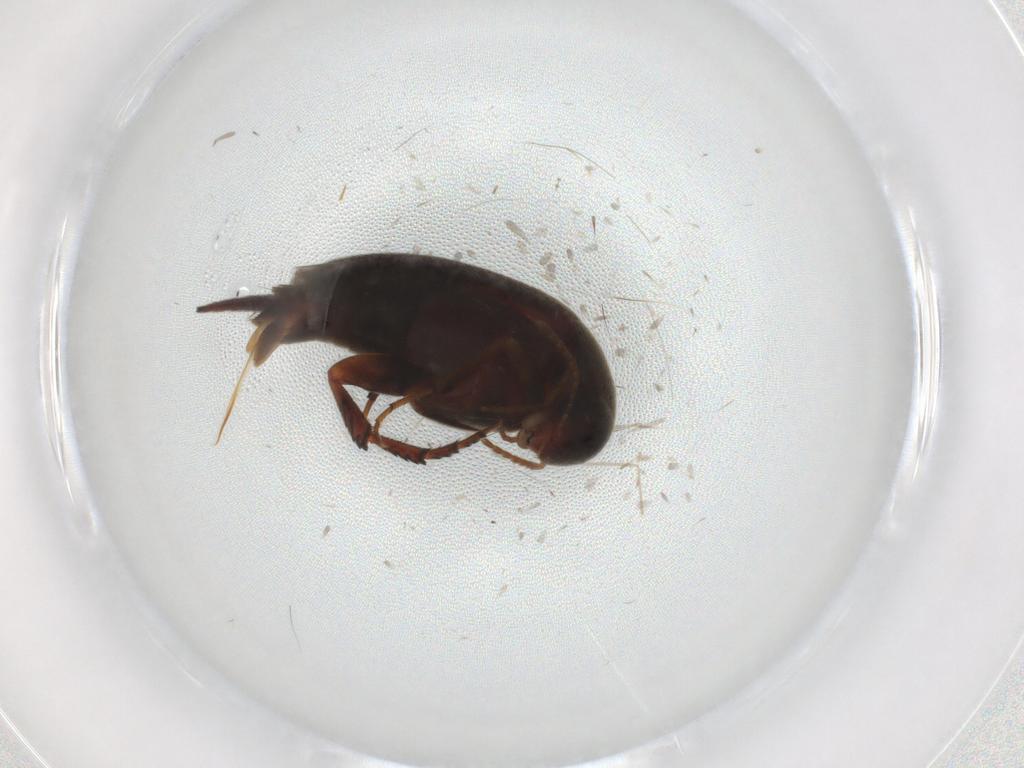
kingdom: Animalia
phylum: Arthropoda
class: Insecta
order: Coleoptera
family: Mordellidae
